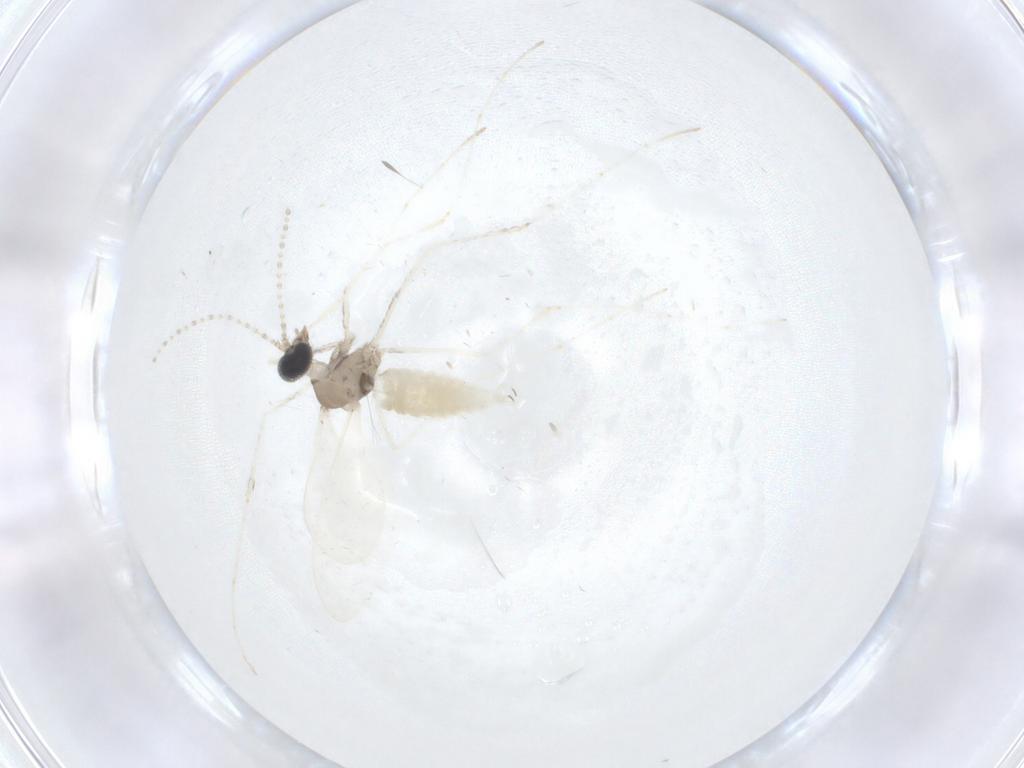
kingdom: Animalia
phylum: Arthropoda
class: Insecta
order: Diptera
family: Cecidomyiidae
